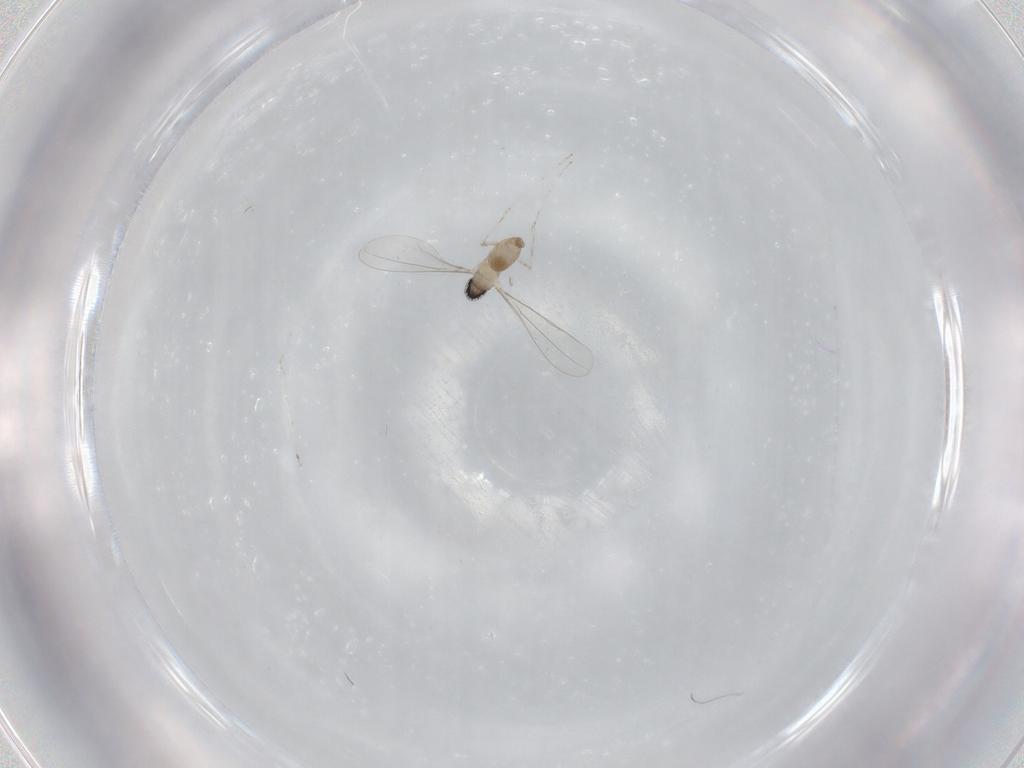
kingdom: Animalia
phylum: Arthropoda
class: Insecta
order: Diptera
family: Cecidomyiidae
